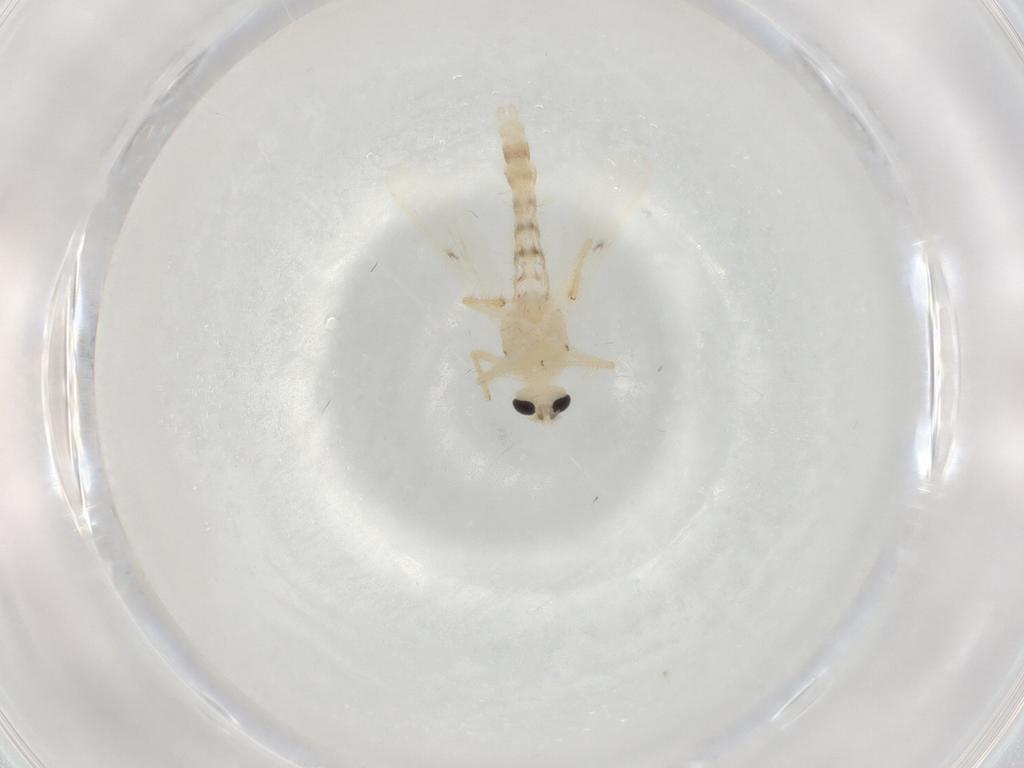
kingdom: Animalia
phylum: Arthropoda
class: Insecta
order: Diptera
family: Chironomidae
